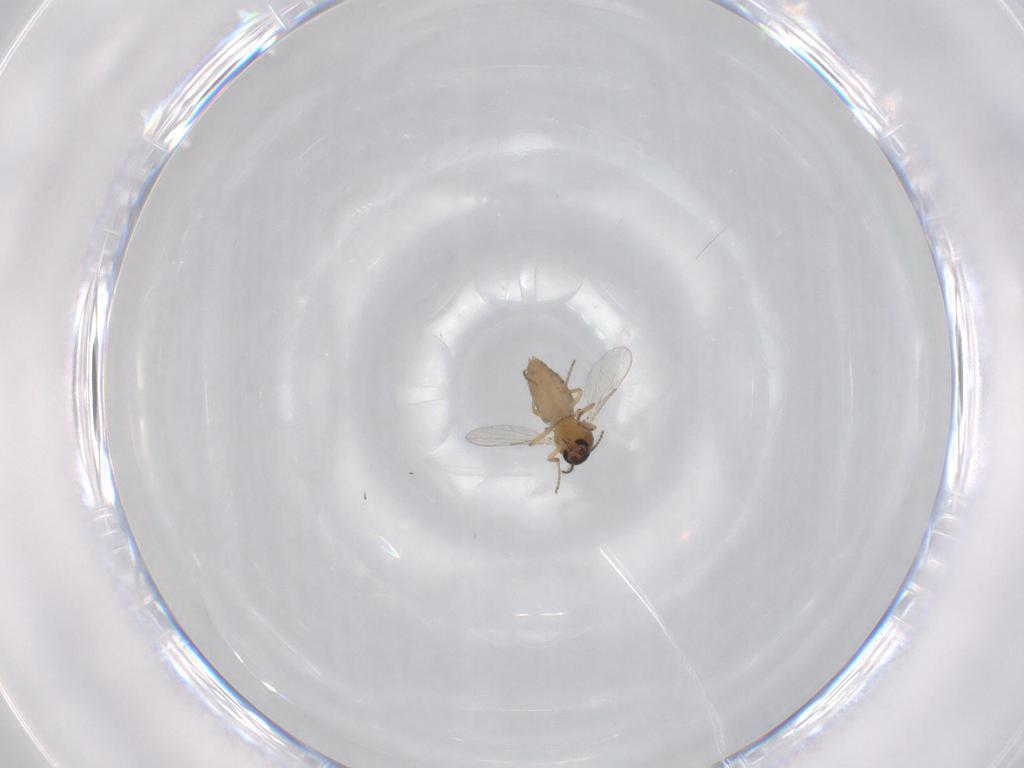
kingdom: Animalia
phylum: Arthropoda
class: Insecta
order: Diptera
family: Ceratopogonidae
